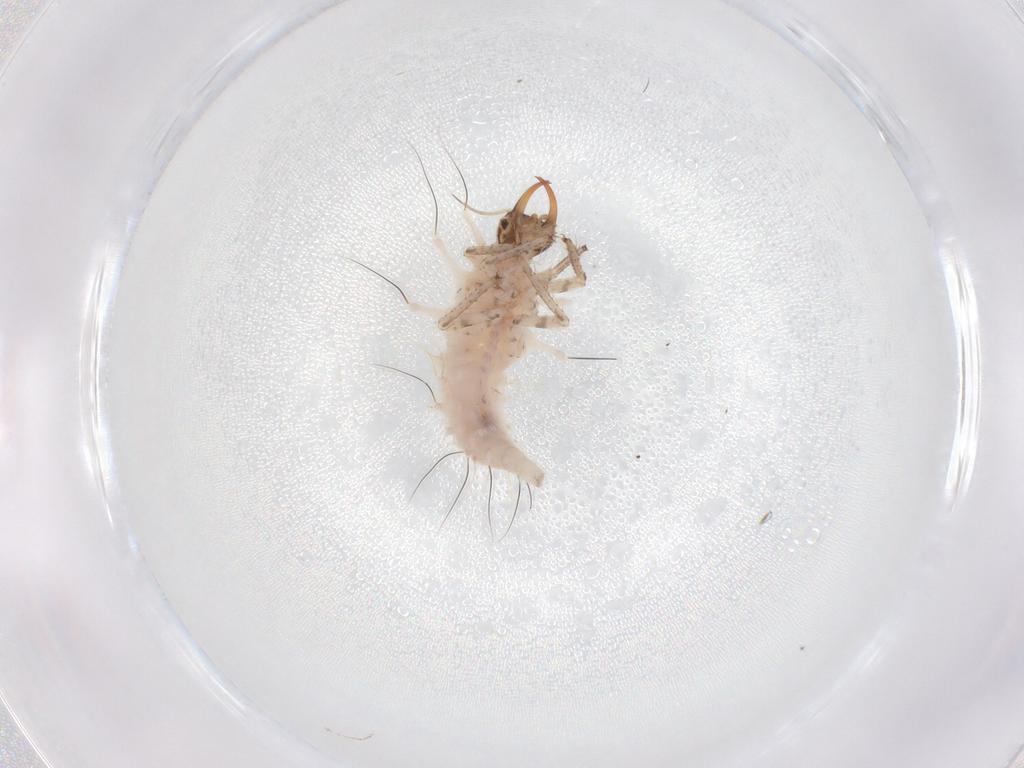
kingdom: Animalia
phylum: Arthropoda
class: Insecta
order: Neuroptera
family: Chrysopidae
